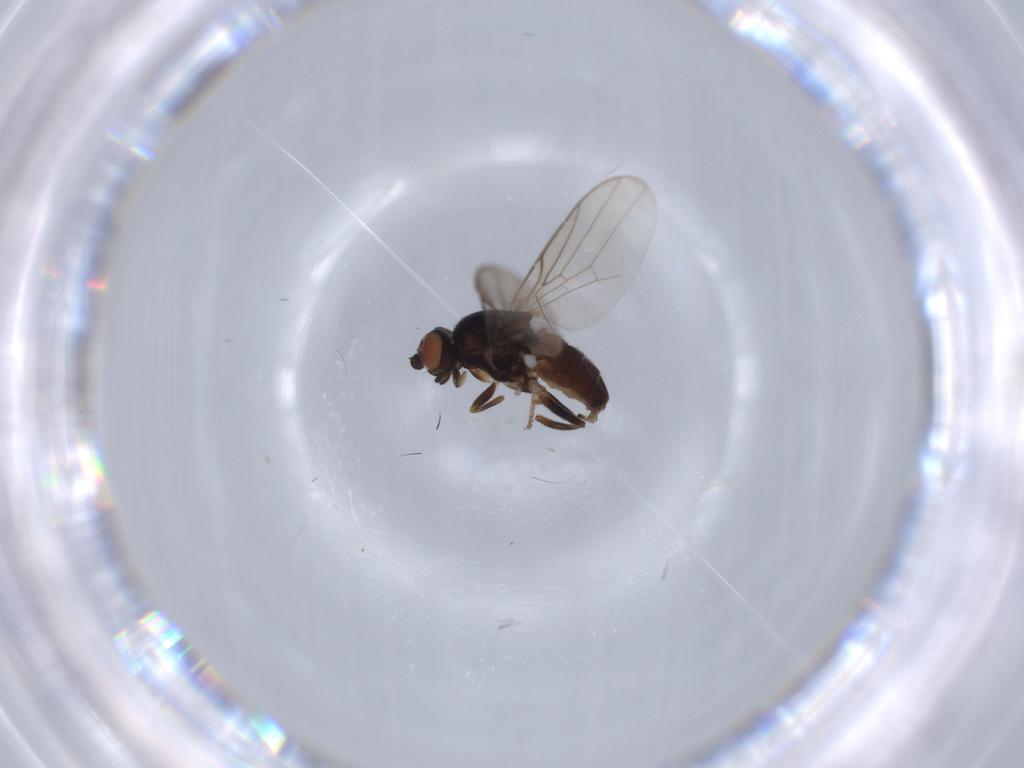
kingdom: Animalia
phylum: Arthropoda
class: Insecta
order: Diptera
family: Chloropidae
